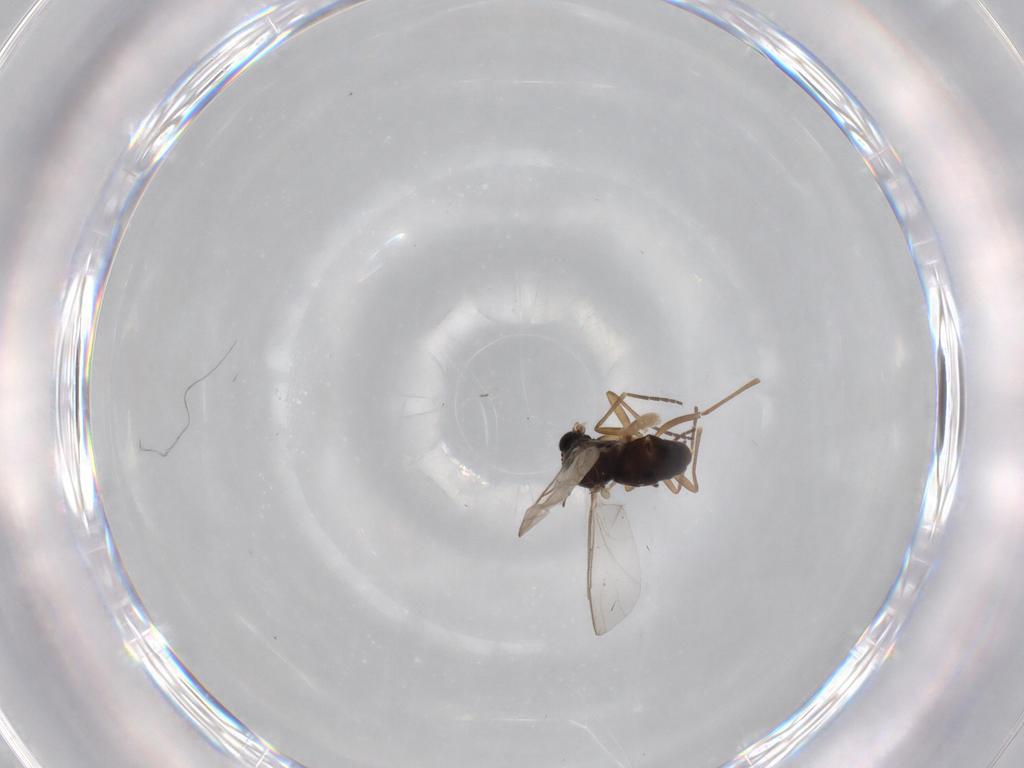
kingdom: Animalia
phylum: Arthropoda
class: Insecta
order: Diptera
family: Sciaridae
